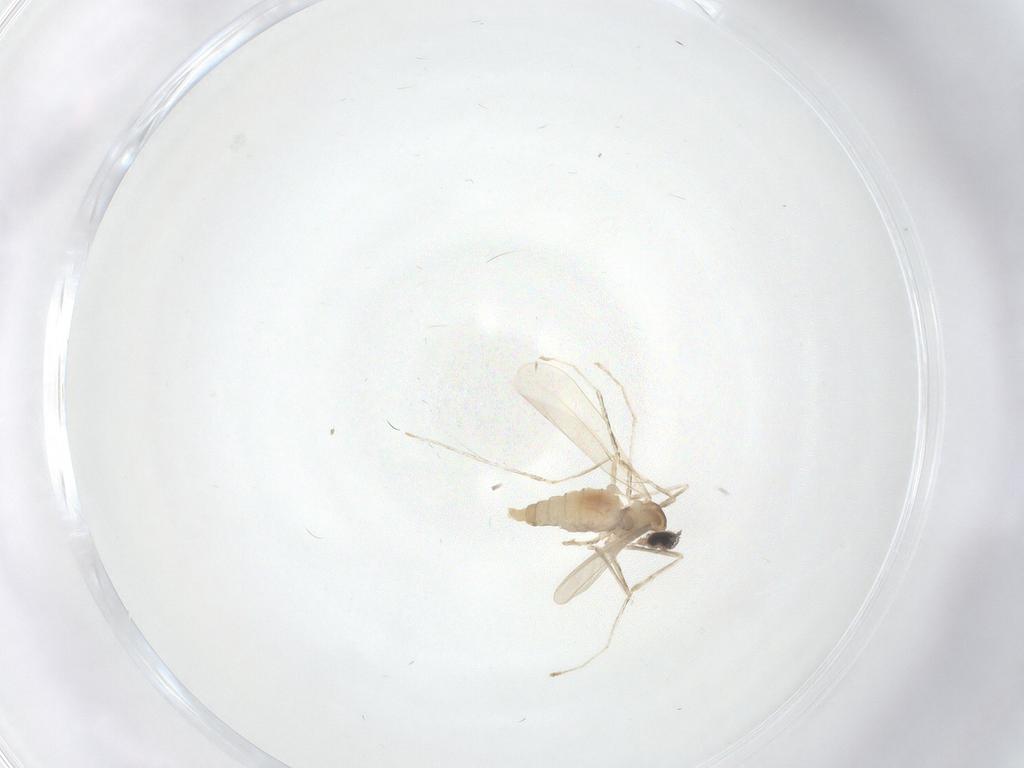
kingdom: Animalia
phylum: Arthropoda
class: Insecta
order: Diptera
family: Cecidomyiidae
